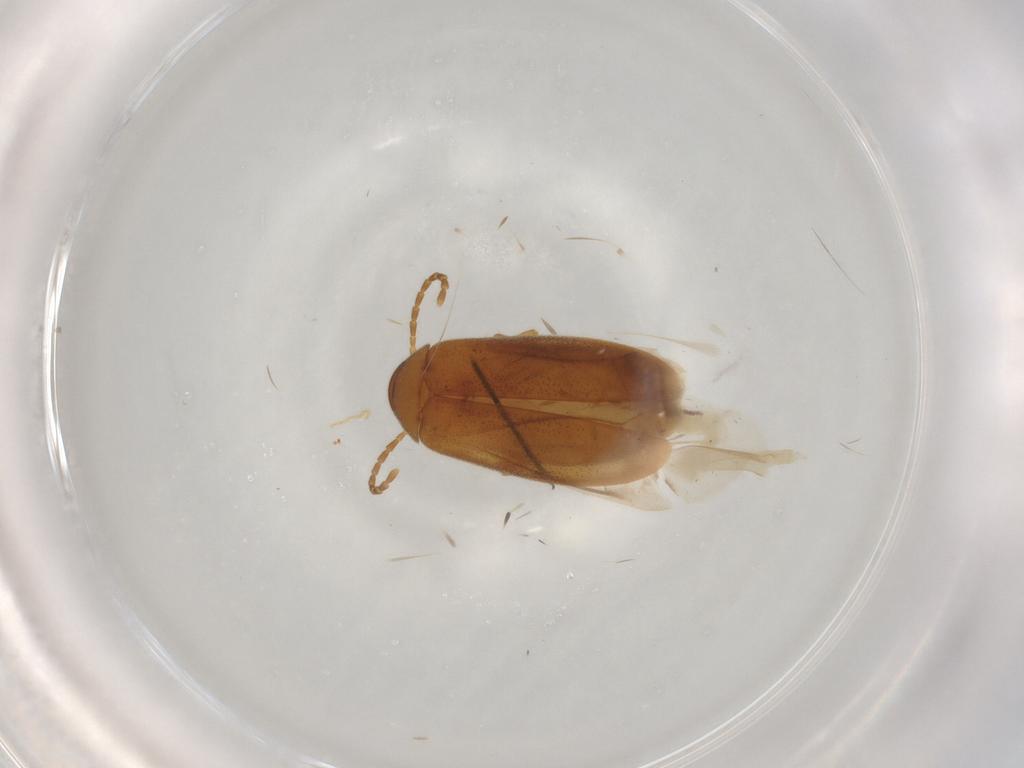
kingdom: Animalia
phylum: Arthropoda
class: Insecta
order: Coleoptera
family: Scraptiidae
